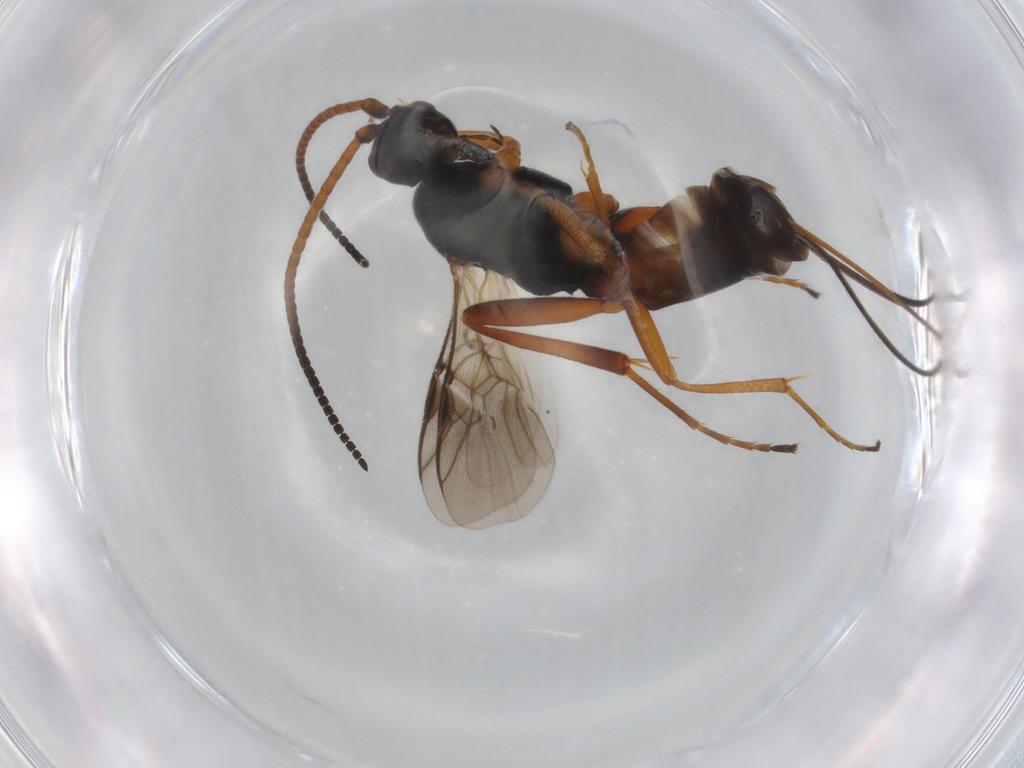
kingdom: Animalia
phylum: Arthropoda
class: Insecta
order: Hymenoptera
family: Braconidae
